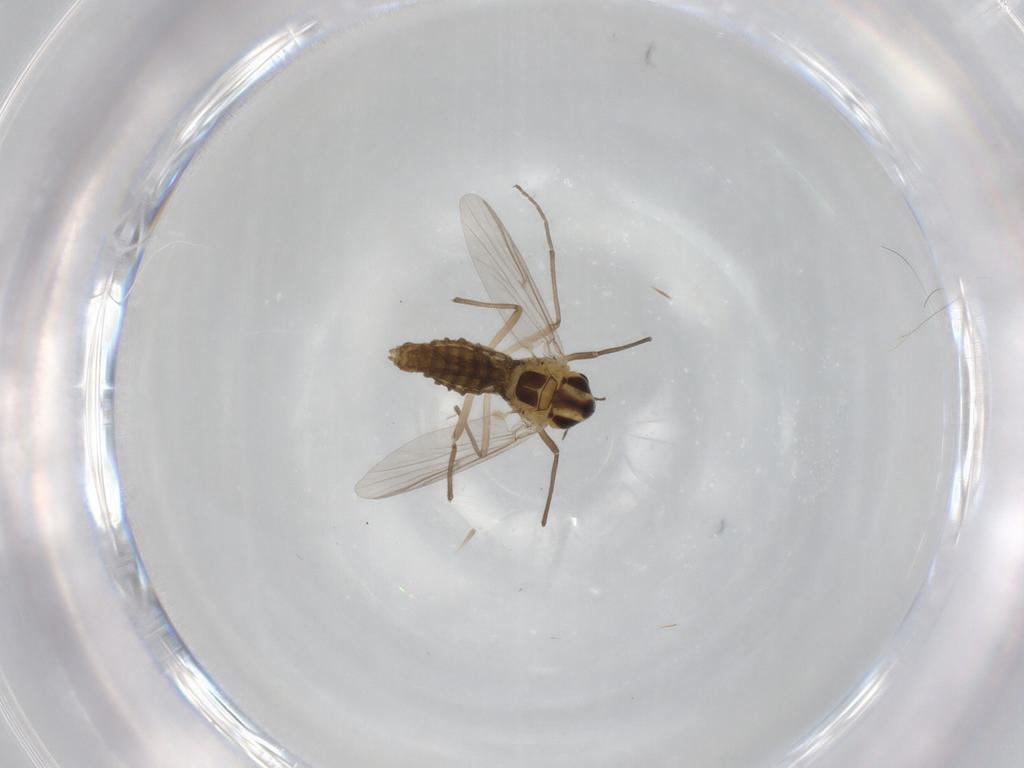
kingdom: Animalia
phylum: Arthropoda
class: Insecta
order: Diptera
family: Chironomidae
